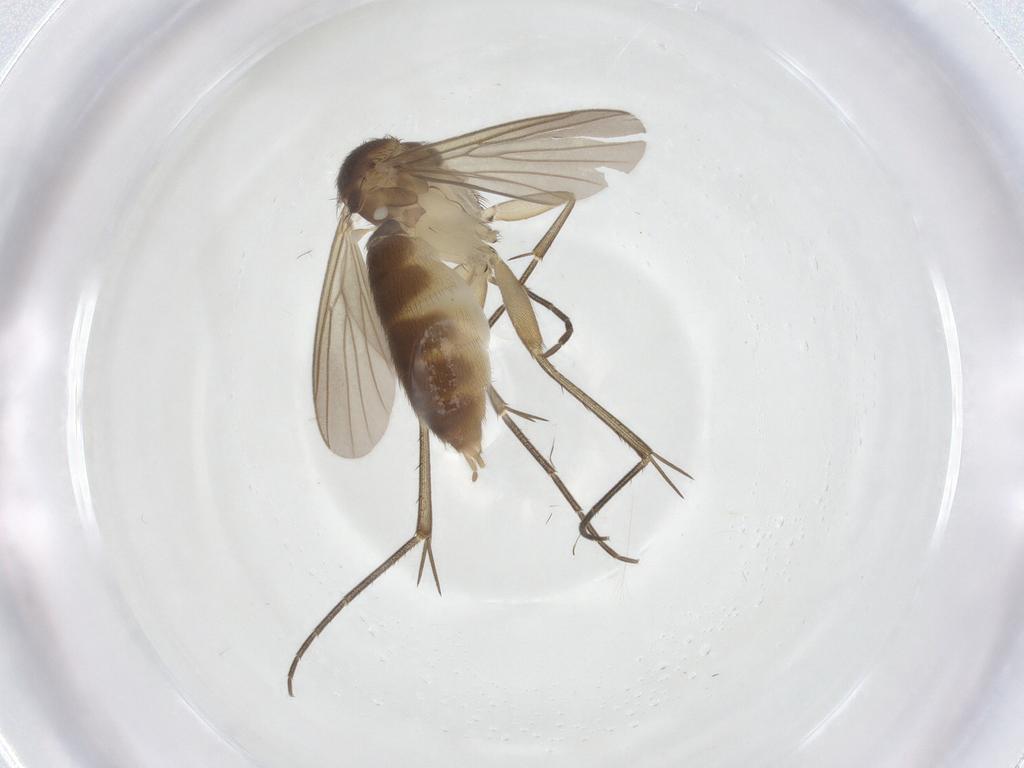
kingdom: Animalia
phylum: Arthropoda
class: Insecta
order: Diptera
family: Mycetophilidae
